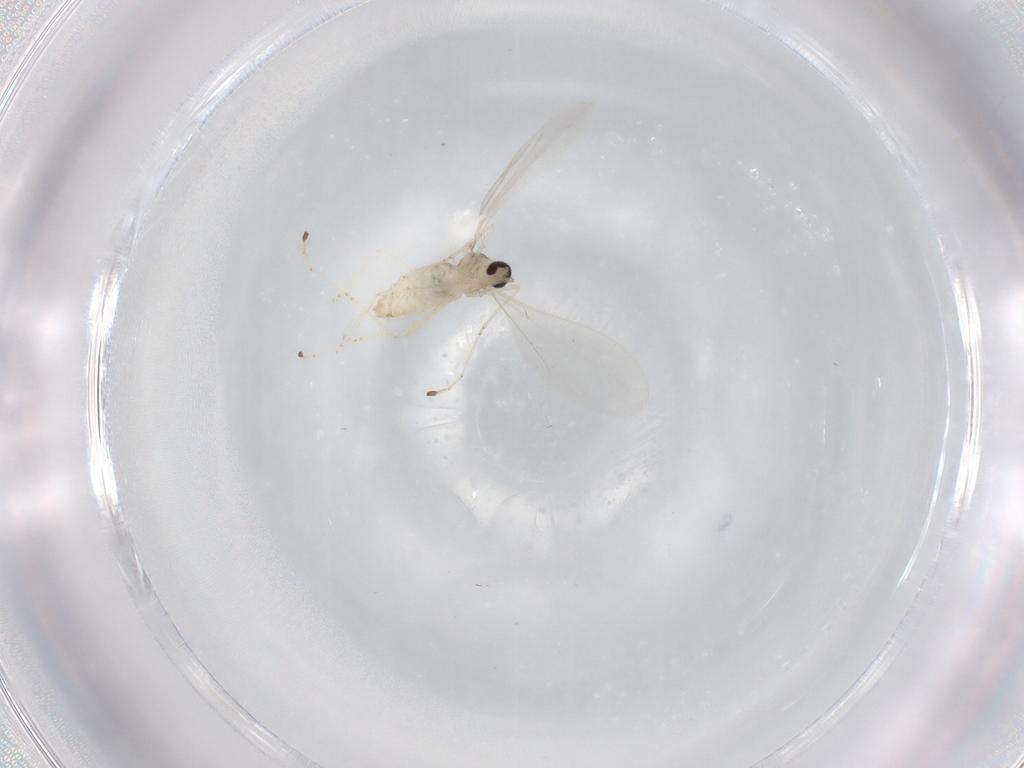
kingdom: Animalia
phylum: Arthropoda
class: Insecta
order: Diptera
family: Cecidomyiidae
